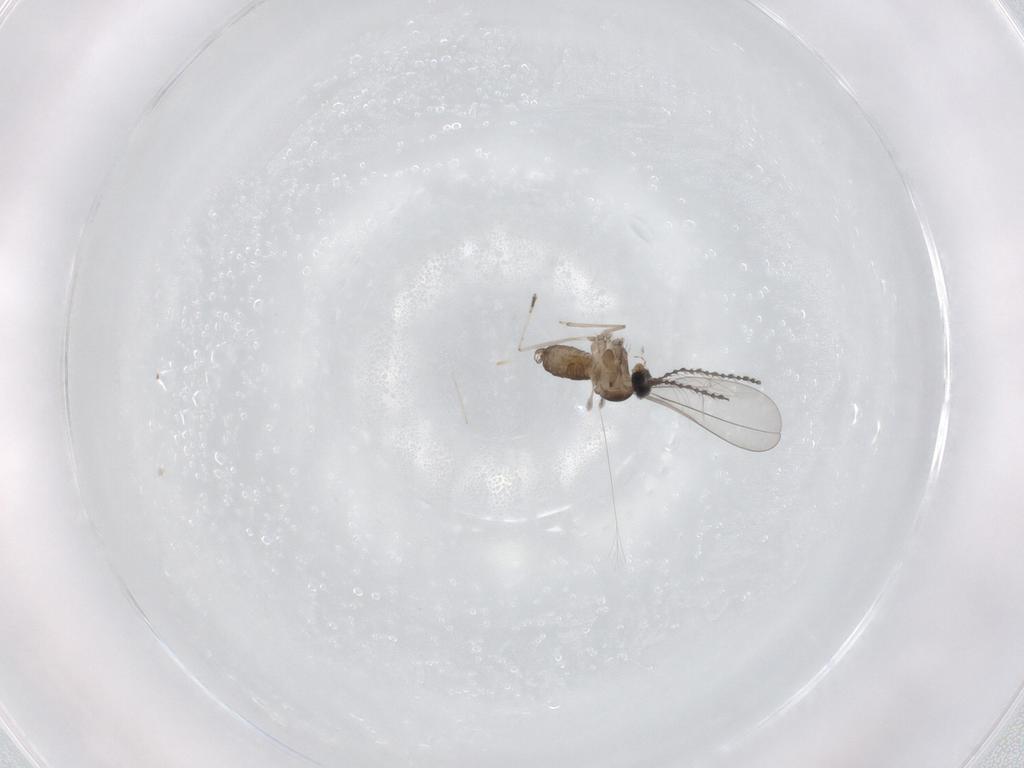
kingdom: Animalia
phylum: Arthropoda
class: Insecta
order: Diptera
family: Cecidomyiidae
